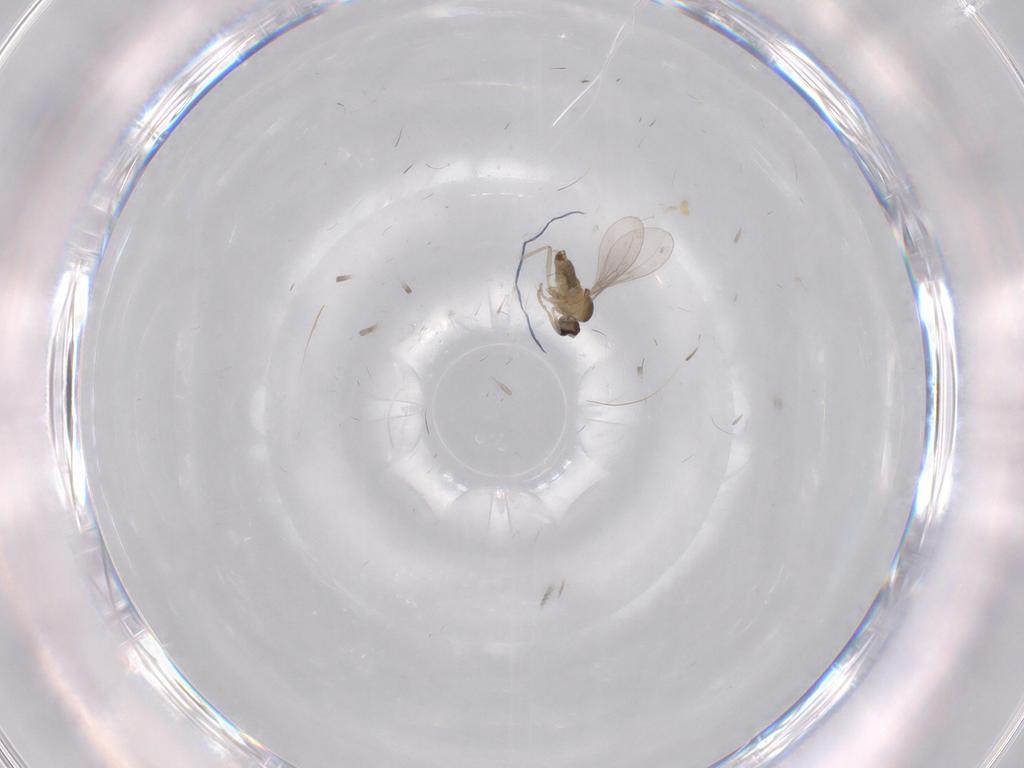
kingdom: Animalia
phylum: Arthropoda
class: Insecta
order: Diptera
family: Cecidomyiidae
